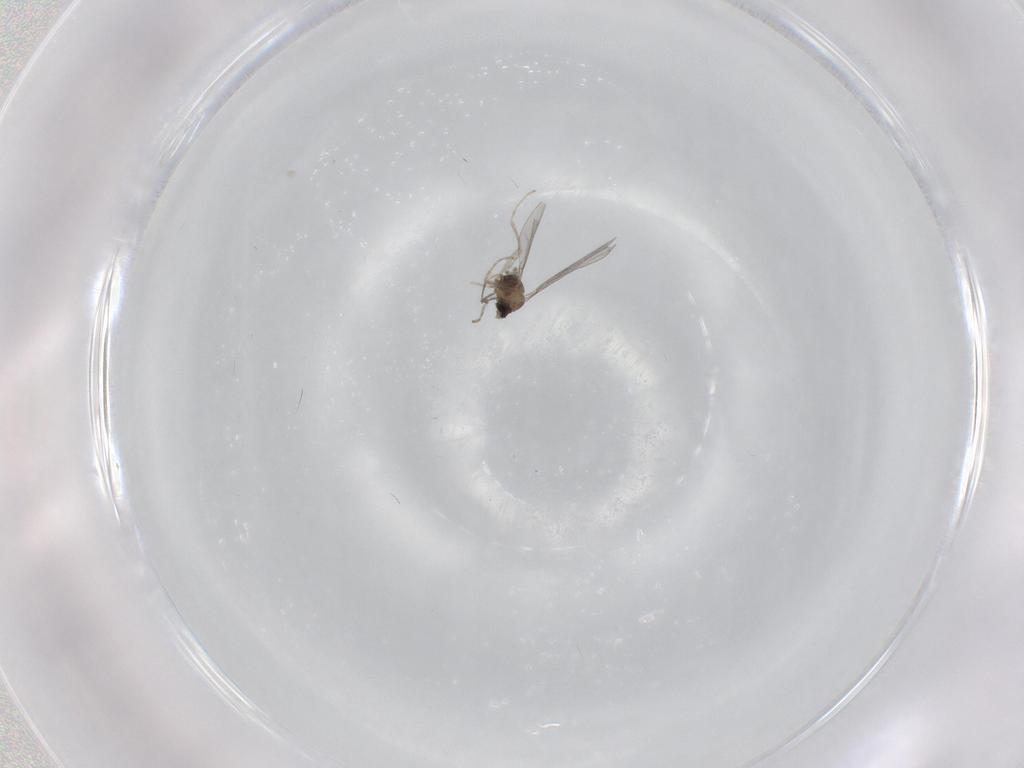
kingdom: Animalia
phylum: Arthropoda
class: Insecta
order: Diptera
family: Cecidomyiidae
